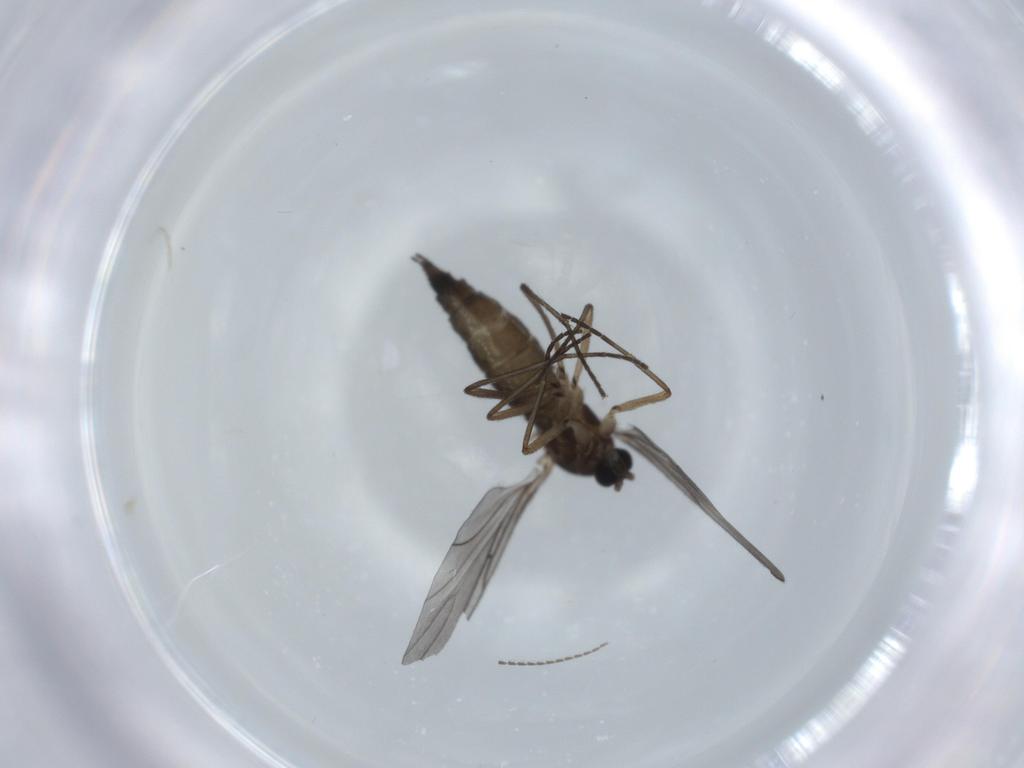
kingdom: Animalia
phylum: Arthropoda
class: Insecta
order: Diptera
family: Sciaridae
